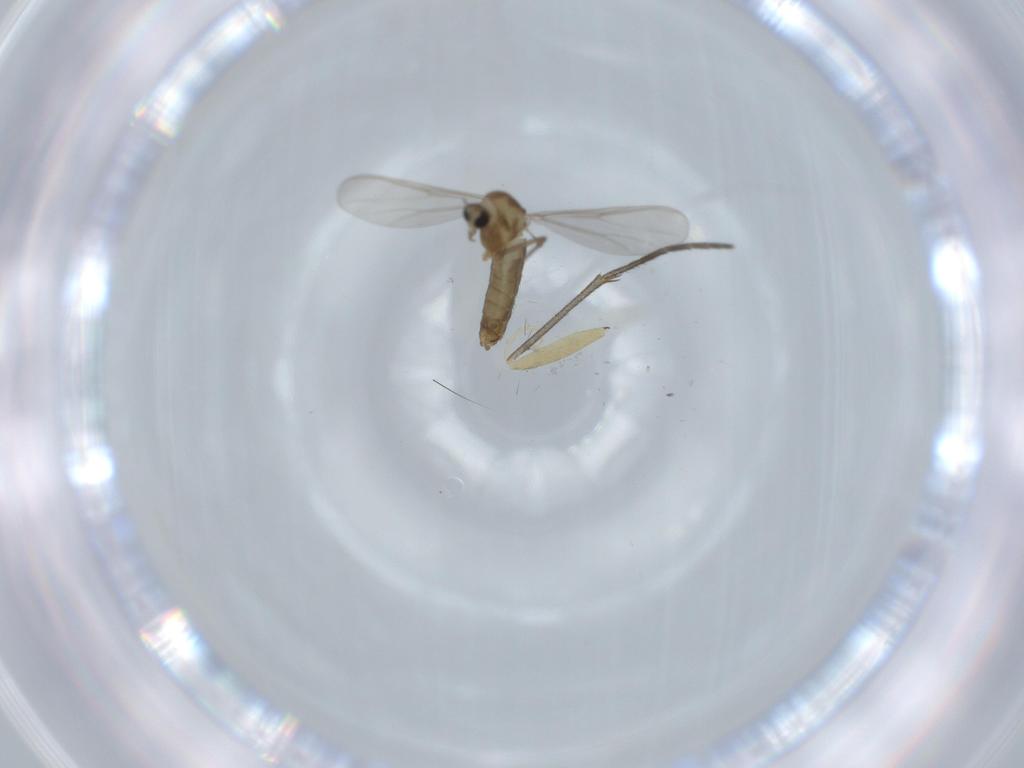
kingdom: Animalia
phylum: Arthropoda
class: Insecta
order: Diptera
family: Chironomidae
